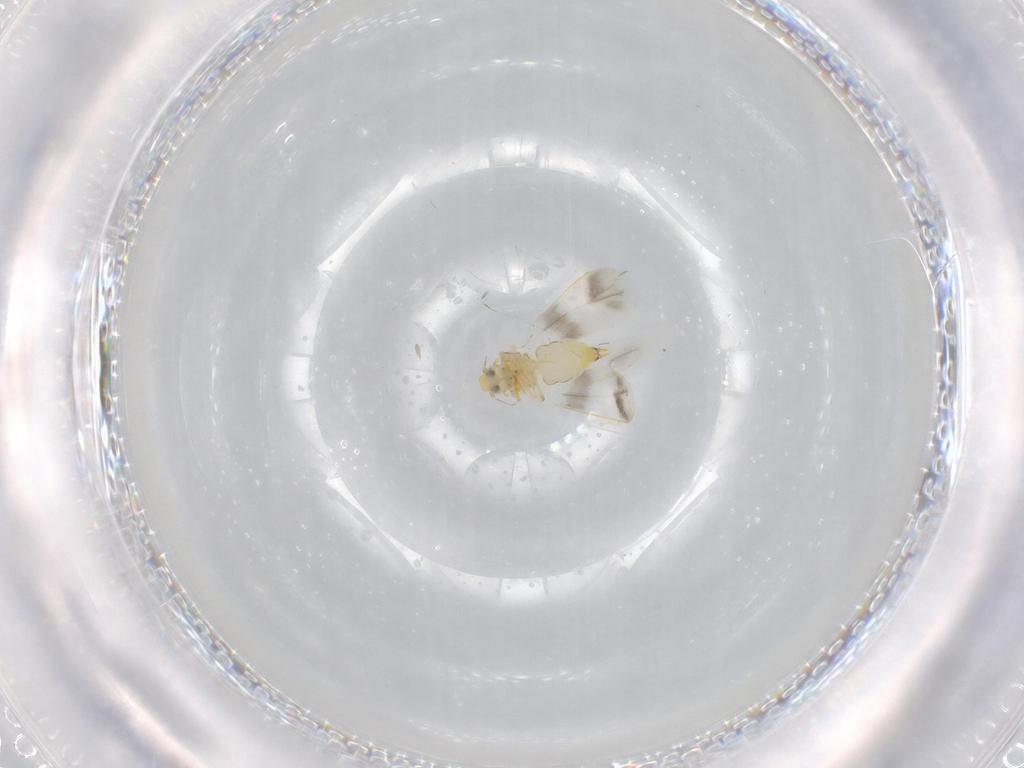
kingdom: Animalia
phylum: Arthropoda
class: Insecta
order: Hemiptera
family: Aleyrodidae
